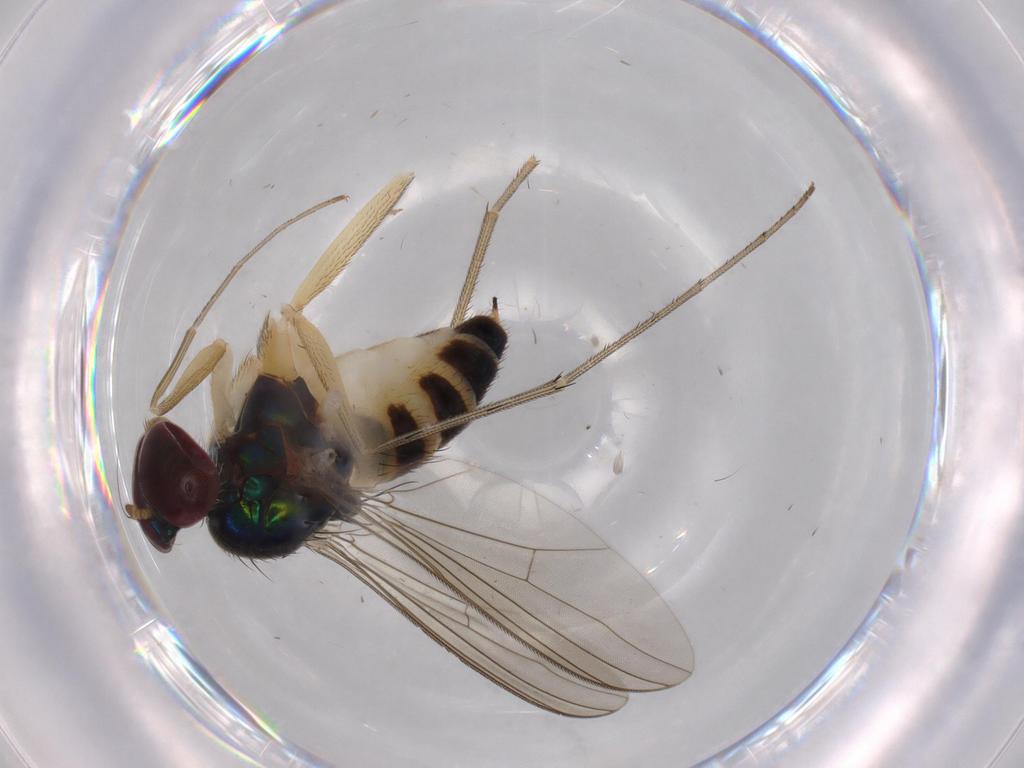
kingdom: Animalia
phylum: Arthropoda
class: Insecta
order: Diptera
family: Dolichopodidae
